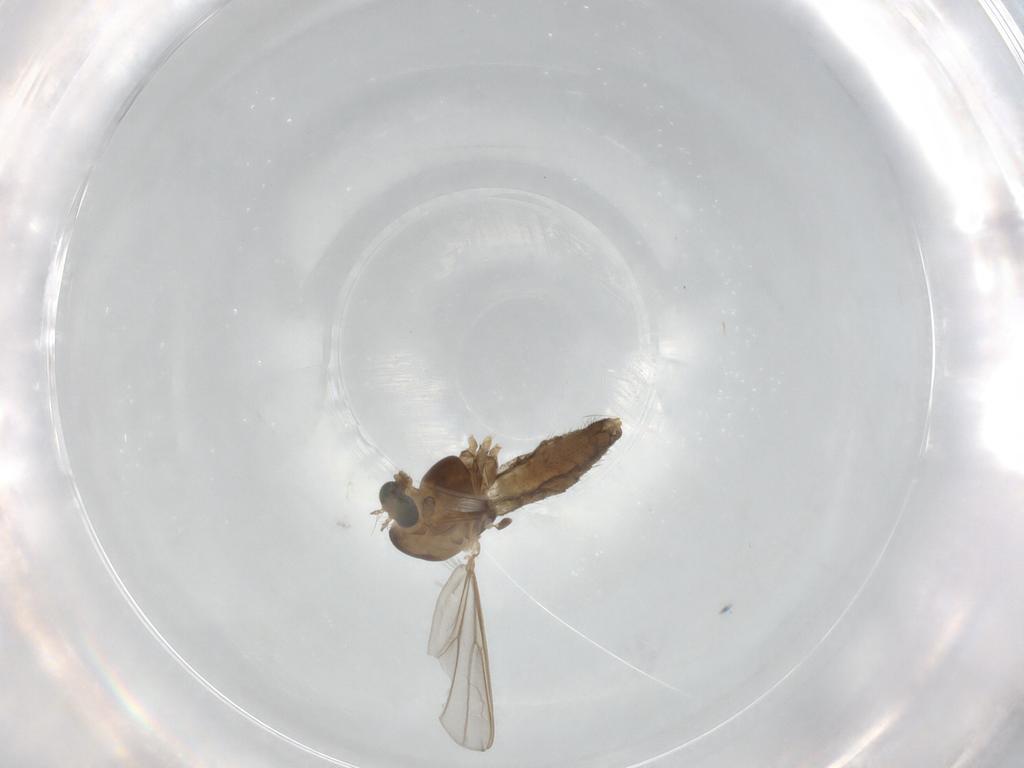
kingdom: Animalia
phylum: Arthropoda
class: Insecta
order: Diptera
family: Chironomidae
